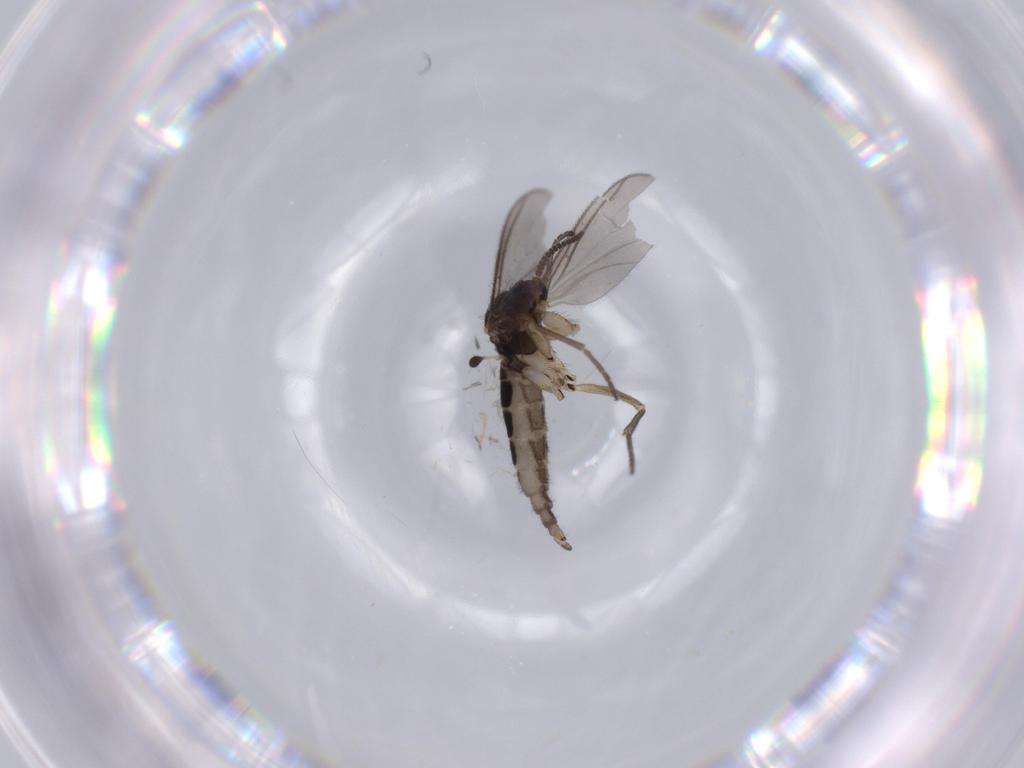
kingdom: Animalia
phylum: Arthropoda
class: Insecta
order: Diptera
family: Sciaridae
